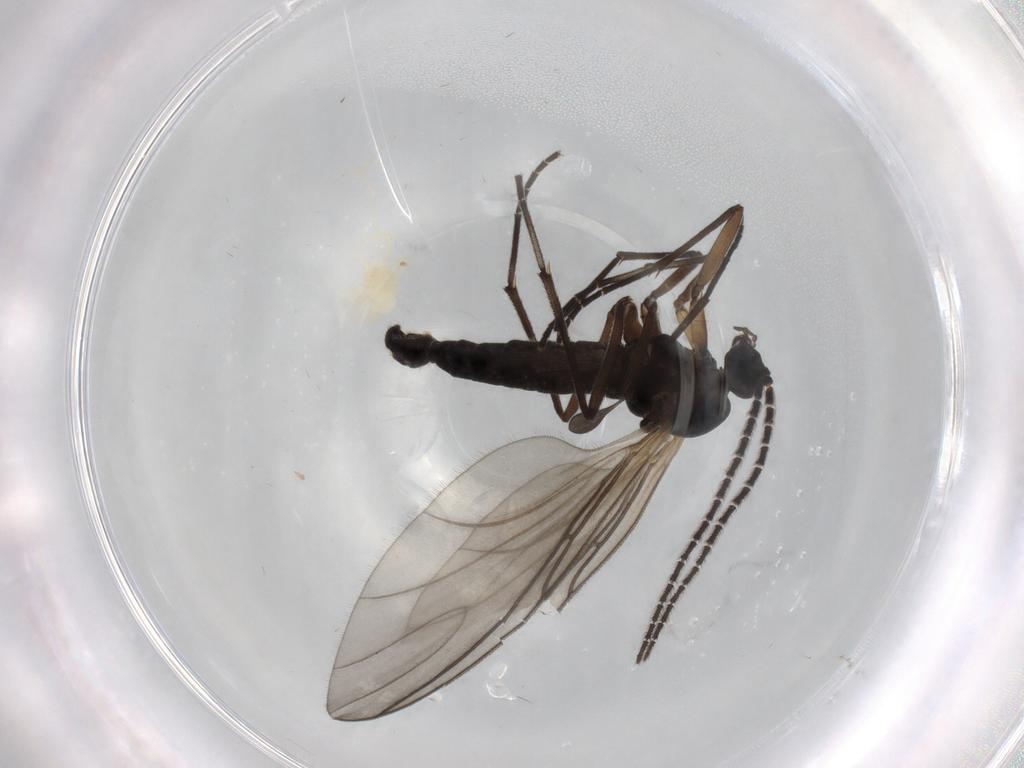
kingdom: Animalia
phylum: Arthropoda
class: Insecta
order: Diptera
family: Sciaridae
